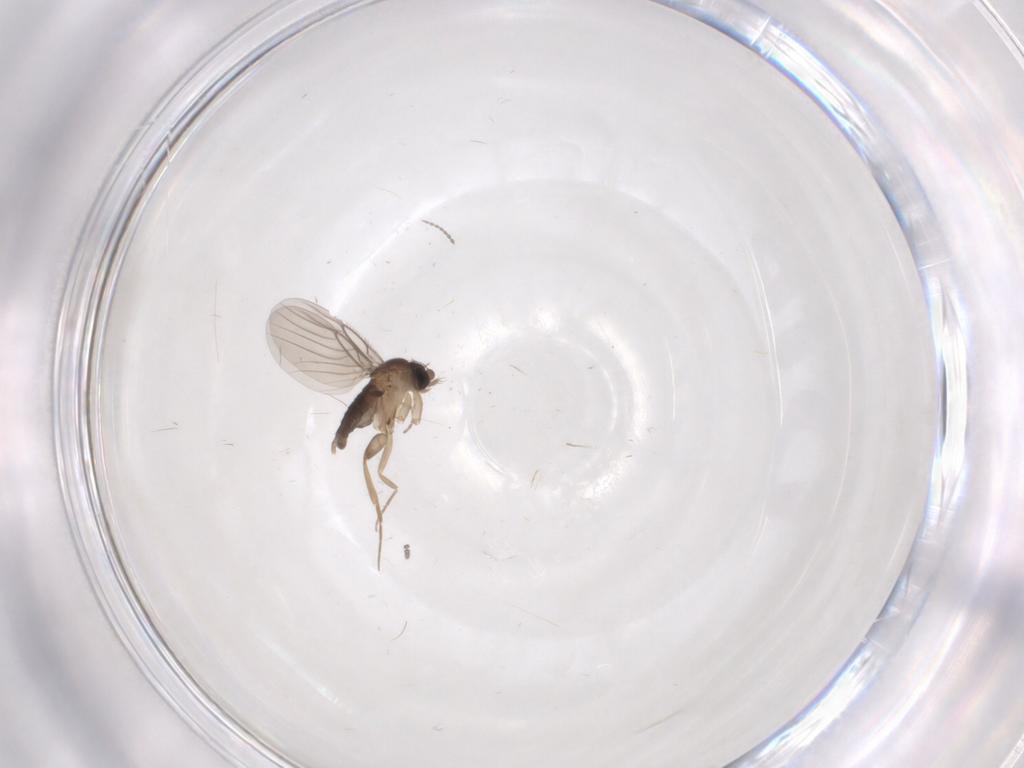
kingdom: Animalia
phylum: Arthropoda
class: Insecta
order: Diptera
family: Phoridae
